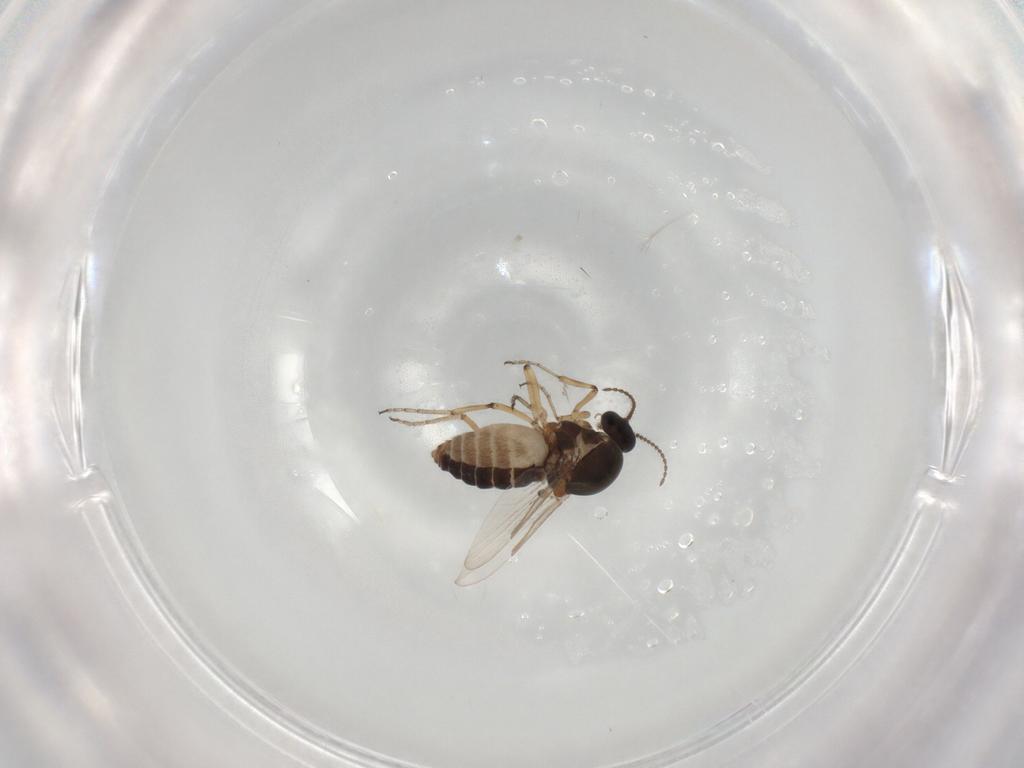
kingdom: Animalia
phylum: Arthropoda
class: Insecta
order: Diptera
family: Ceratopogonidae
